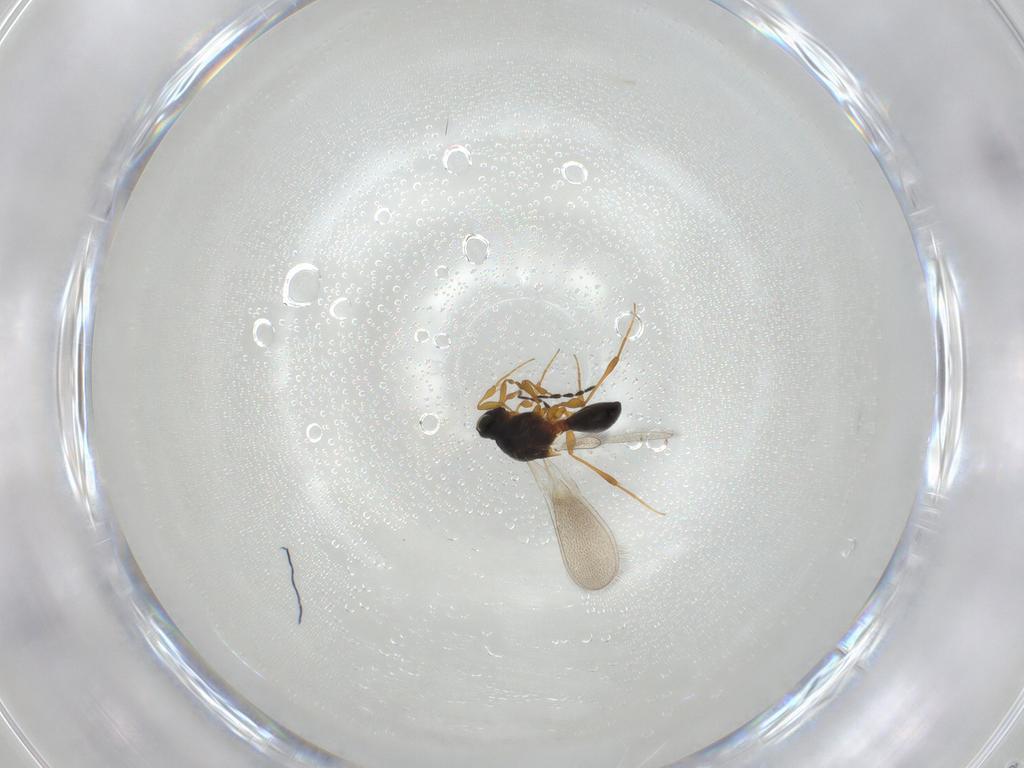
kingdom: Animalia
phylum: Arthropoda
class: Insecta
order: Hymenoptera
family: Platygastridae
